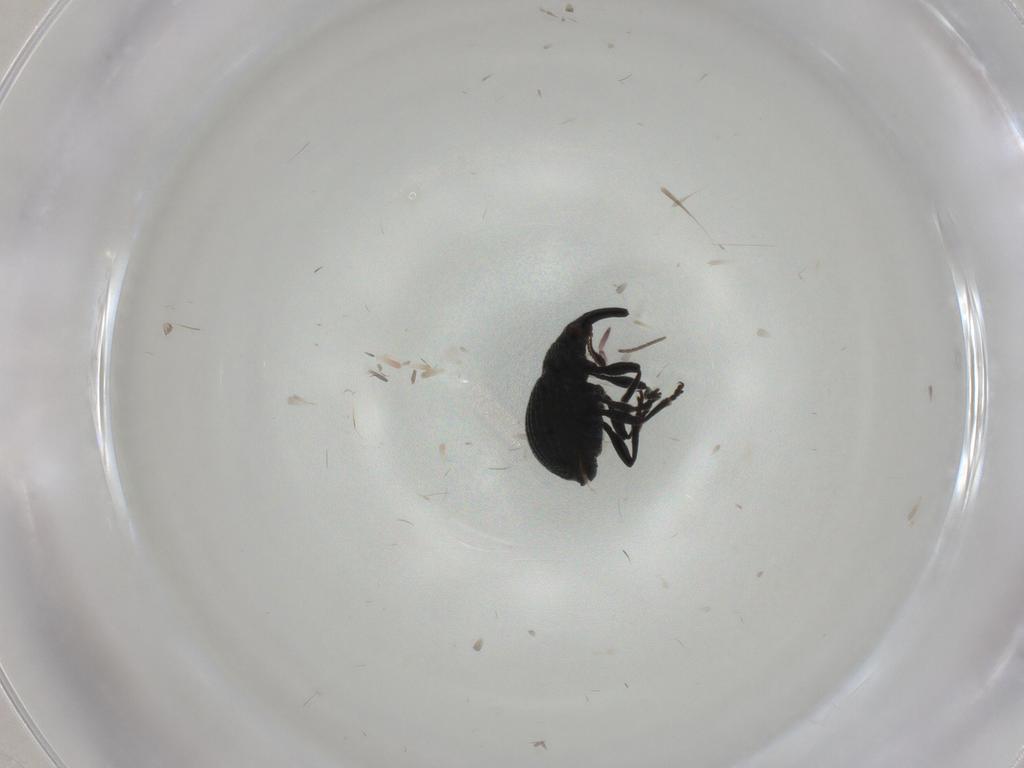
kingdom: Animalia
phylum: Arthropoda
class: Insecta
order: Coleoptera
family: Brentidae
